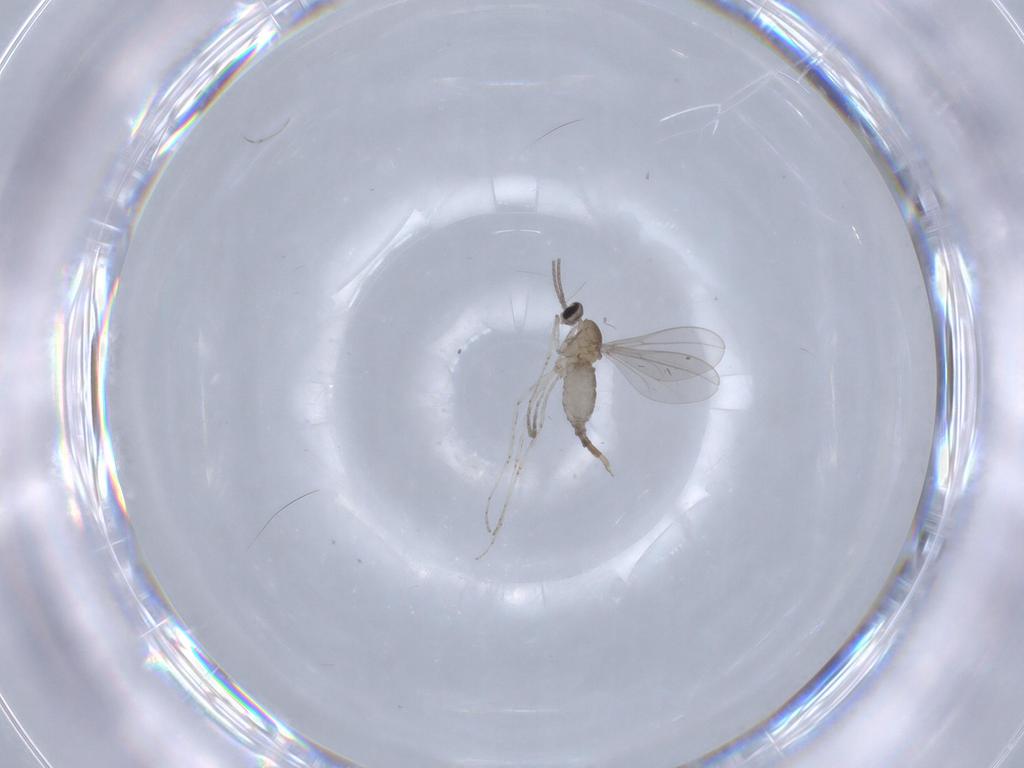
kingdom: Animalia
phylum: Arthropoda
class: Insecta
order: Diptera
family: Cecidomyiidae
